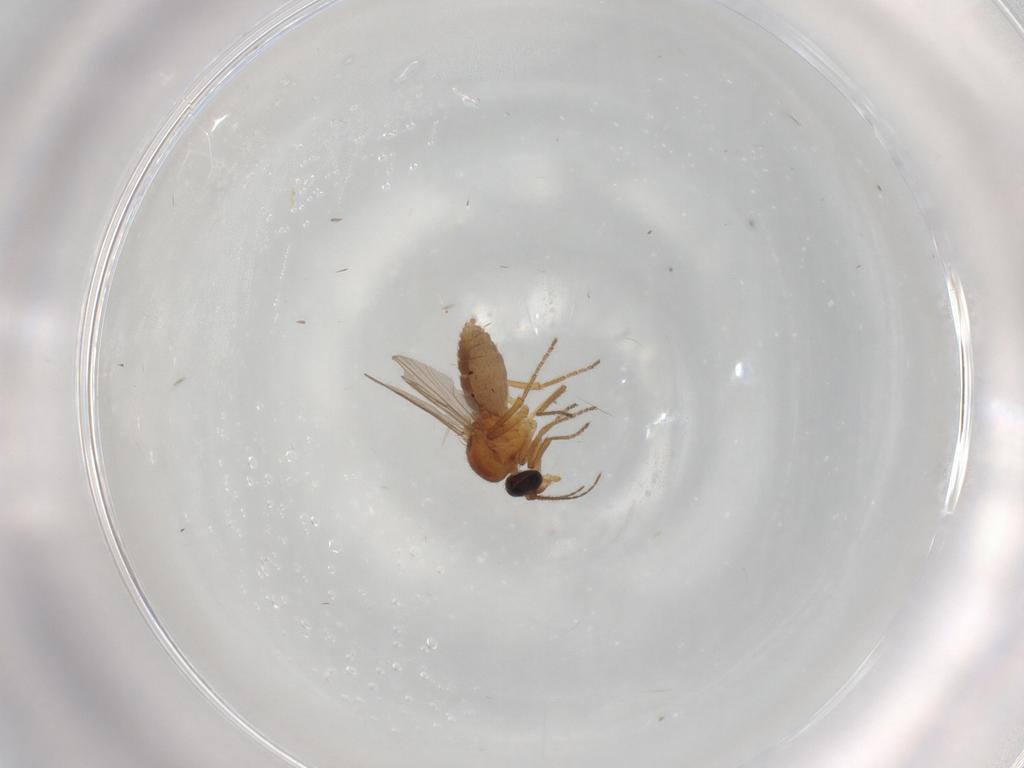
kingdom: Animalia
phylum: Arthropoda
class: Insecta
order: Diptera
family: Ceratopogonidae
